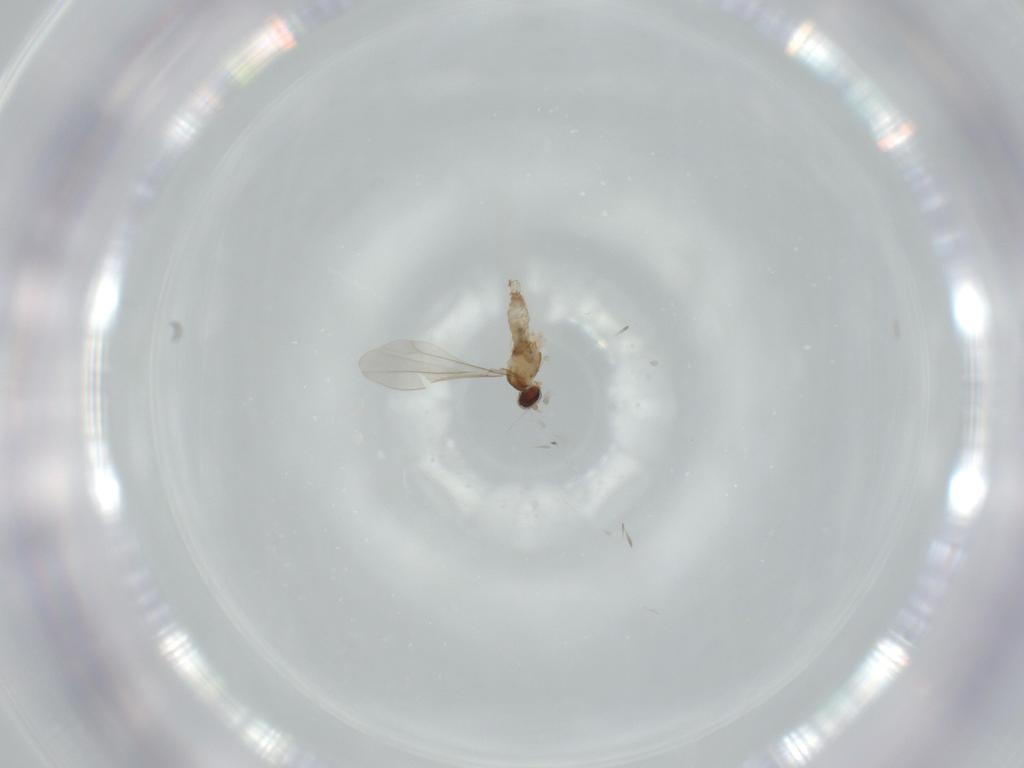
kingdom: Animalia
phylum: Arthropoda
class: Insecta
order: Diptera
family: Cecidomyiidae
